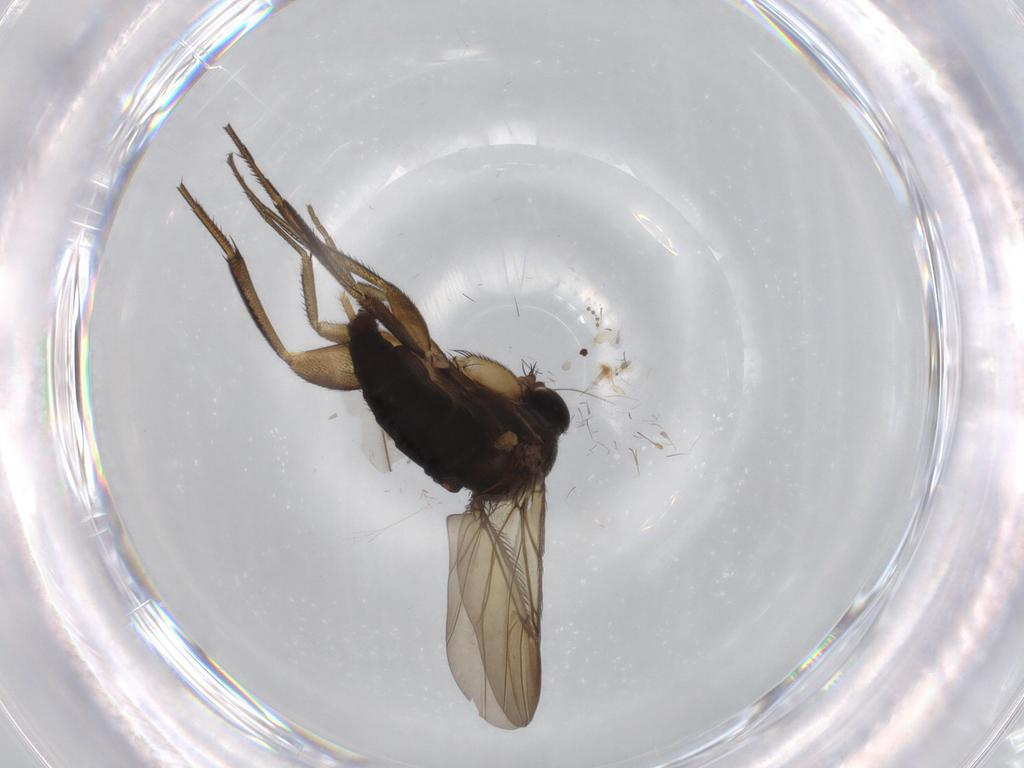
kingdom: Animalia
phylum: Arthropoda
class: Insecta
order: Diptera
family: Phoridae
